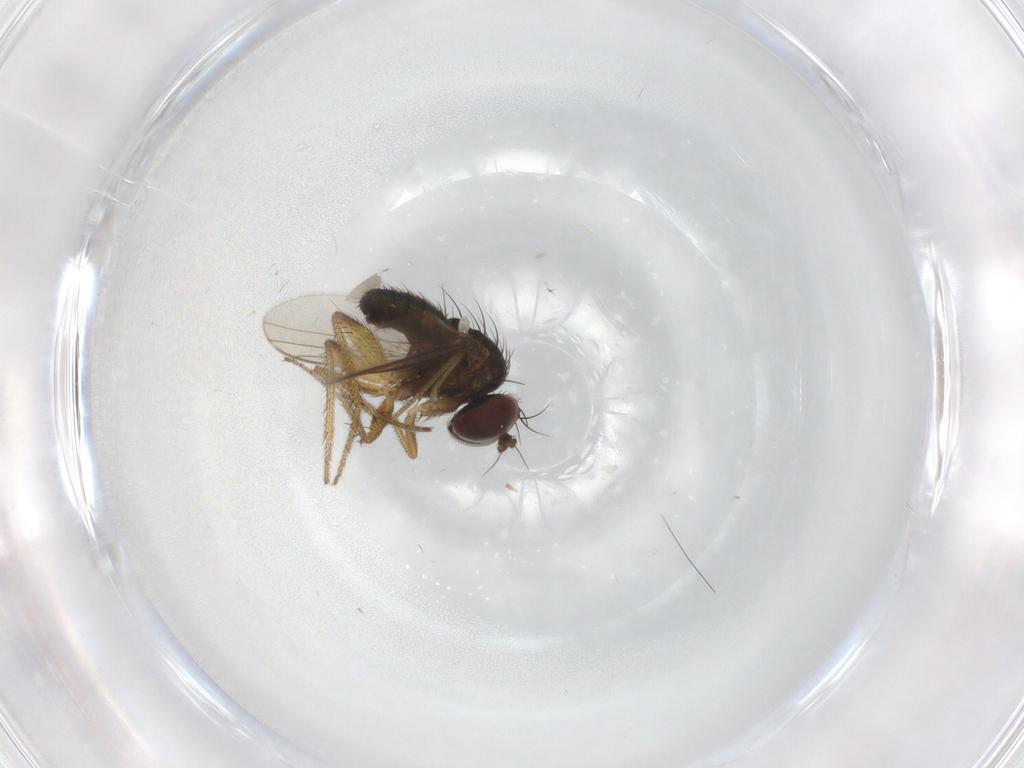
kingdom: Animalia
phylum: Arthropoda
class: Insecta
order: Diptera
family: Dolichopodidae
